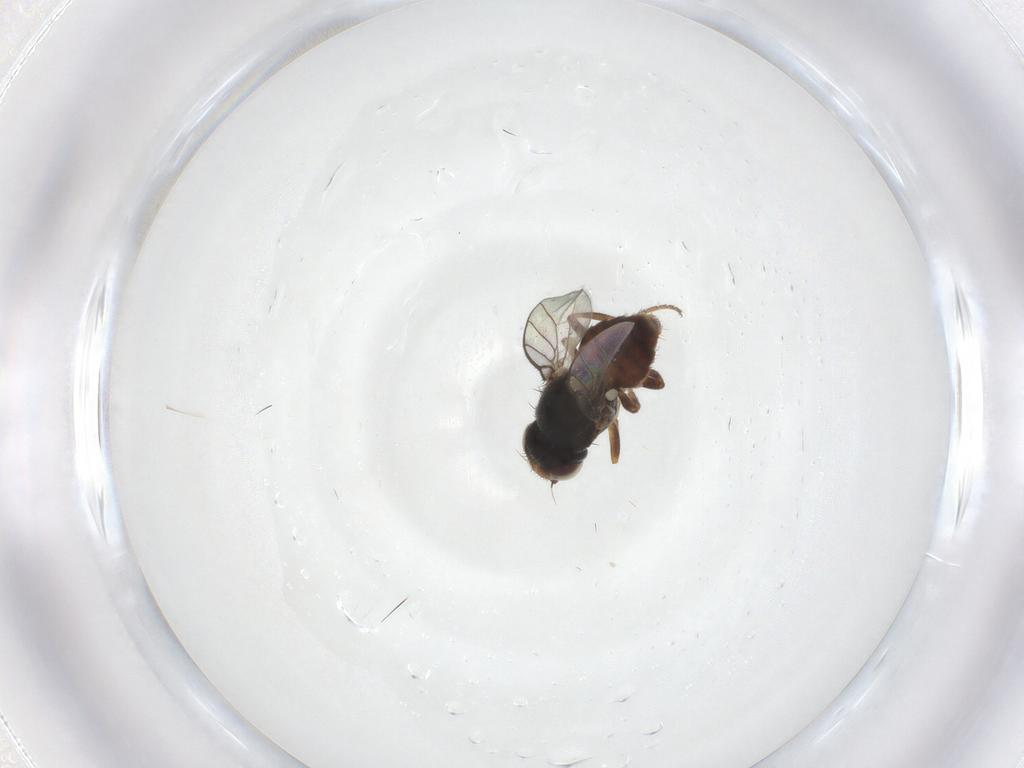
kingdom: Animalia
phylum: Arthropoda
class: Insecta
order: Diptera
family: Chloropidae
